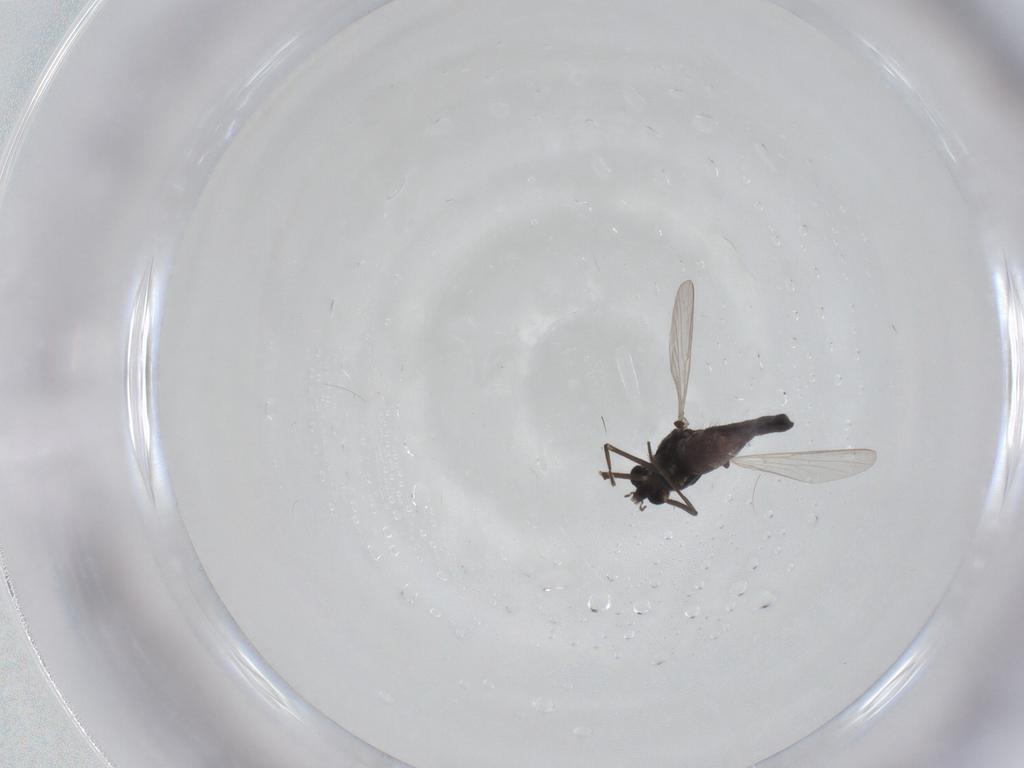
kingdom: Animalia
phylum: Arthropoda
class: Insecta
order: Diptera
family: Chironomidae
